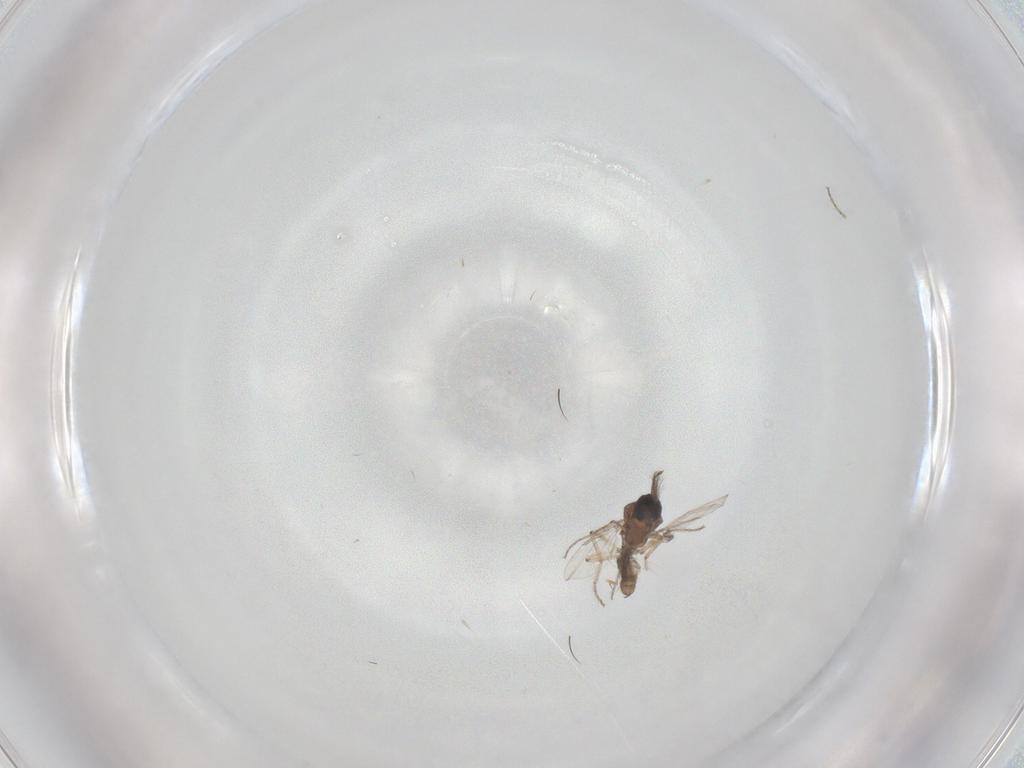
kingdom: Animalia
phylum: Arthropoda
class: Insecta
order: Diptera
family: Ceratopogonidae
